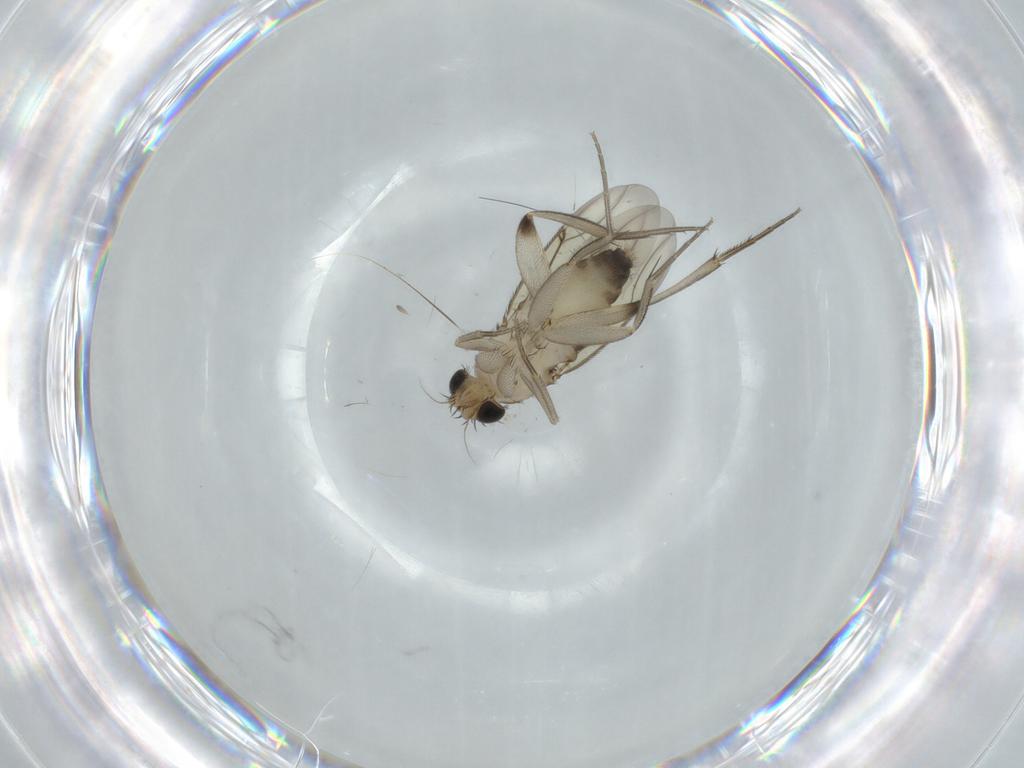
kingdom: Animalia
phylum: Arthropoda
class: Insecta
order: Diptera
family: Phoridae
